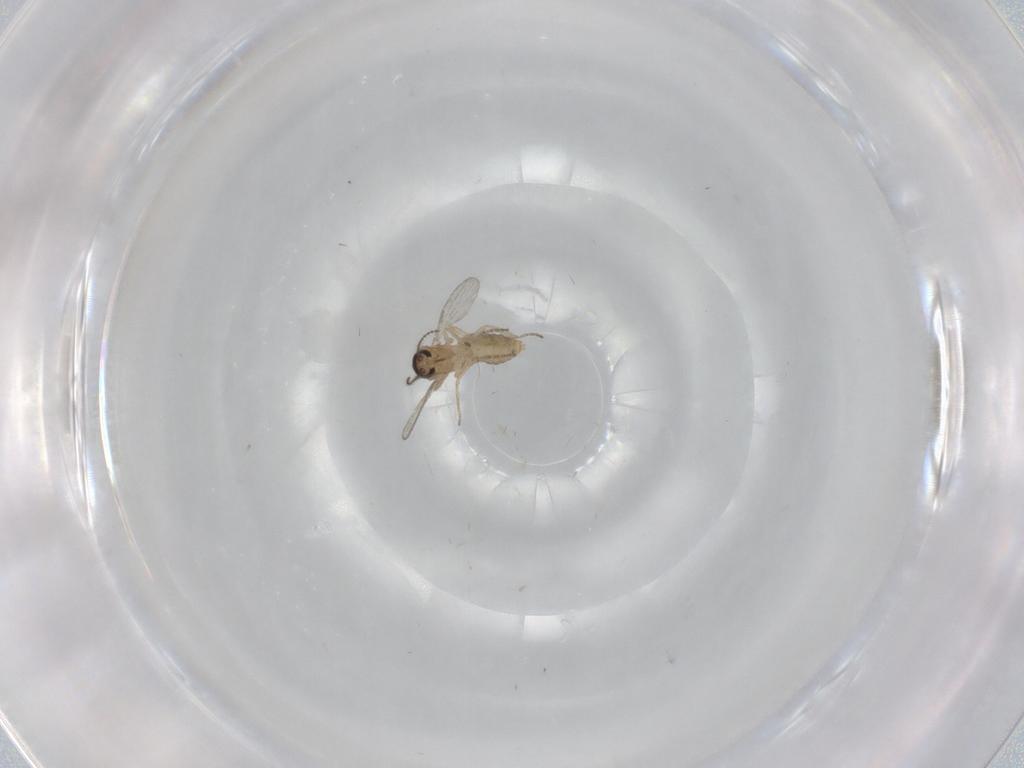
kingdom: Animalia
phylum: Arthropoda
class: Insecta
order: Diptera
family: Ceratopogonidae
